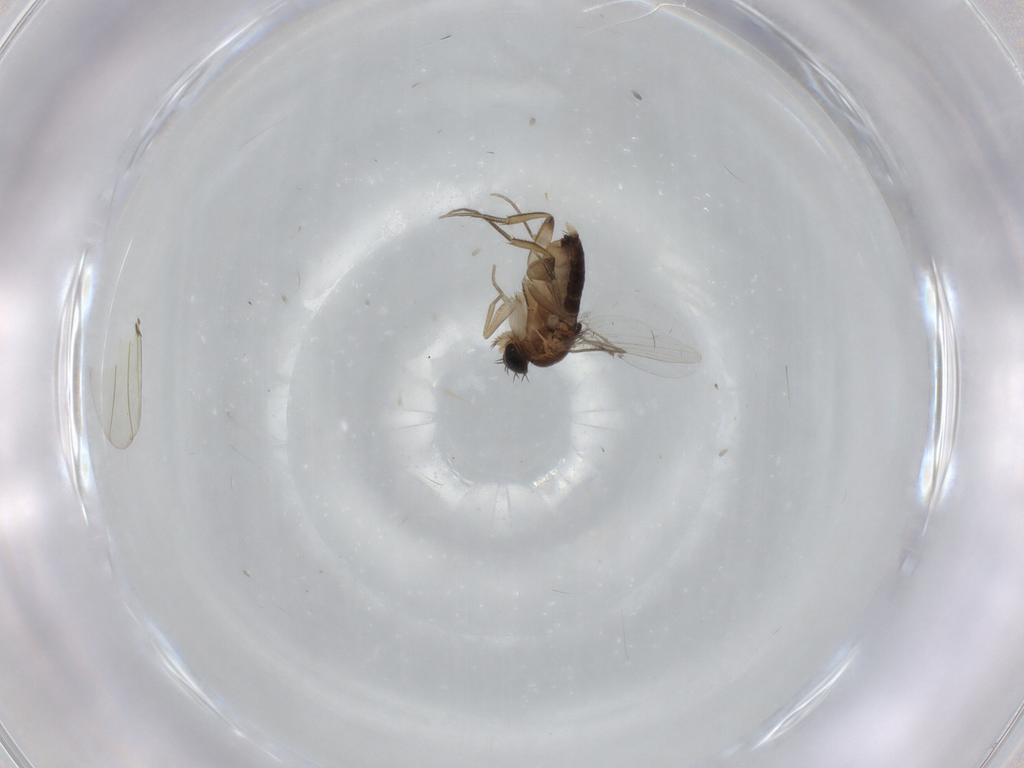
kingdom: Animalia
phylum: Arthropoda
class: Insecta
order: Diptera
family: Phoridae
